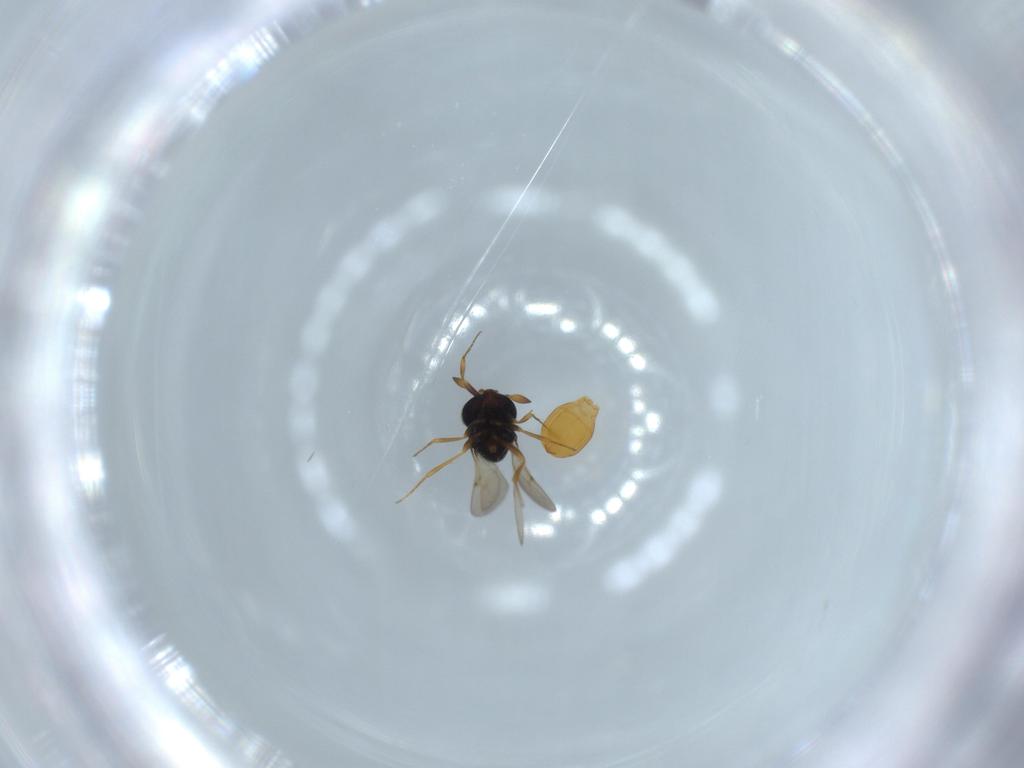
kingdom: Animalia
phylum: Arthropoda
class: Insecta
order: Hymenoptera
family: Scelionidae
